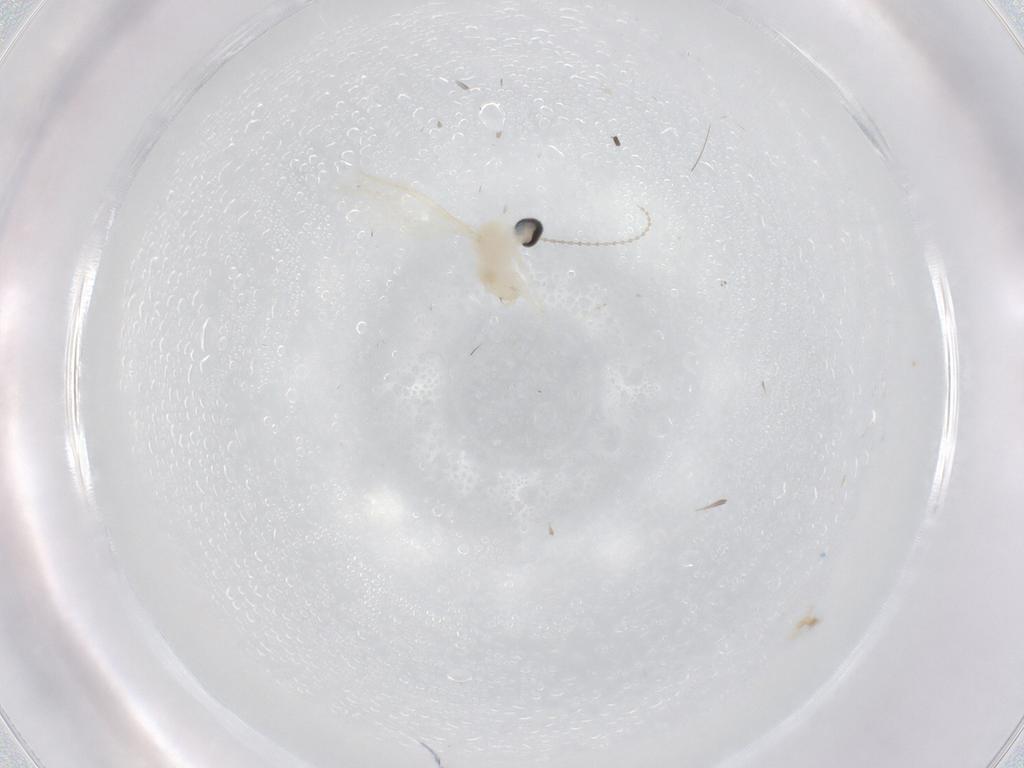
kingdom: Animalia
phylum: Arthropoda
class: Insecta
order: Diptera
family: Cecidomyiidae
